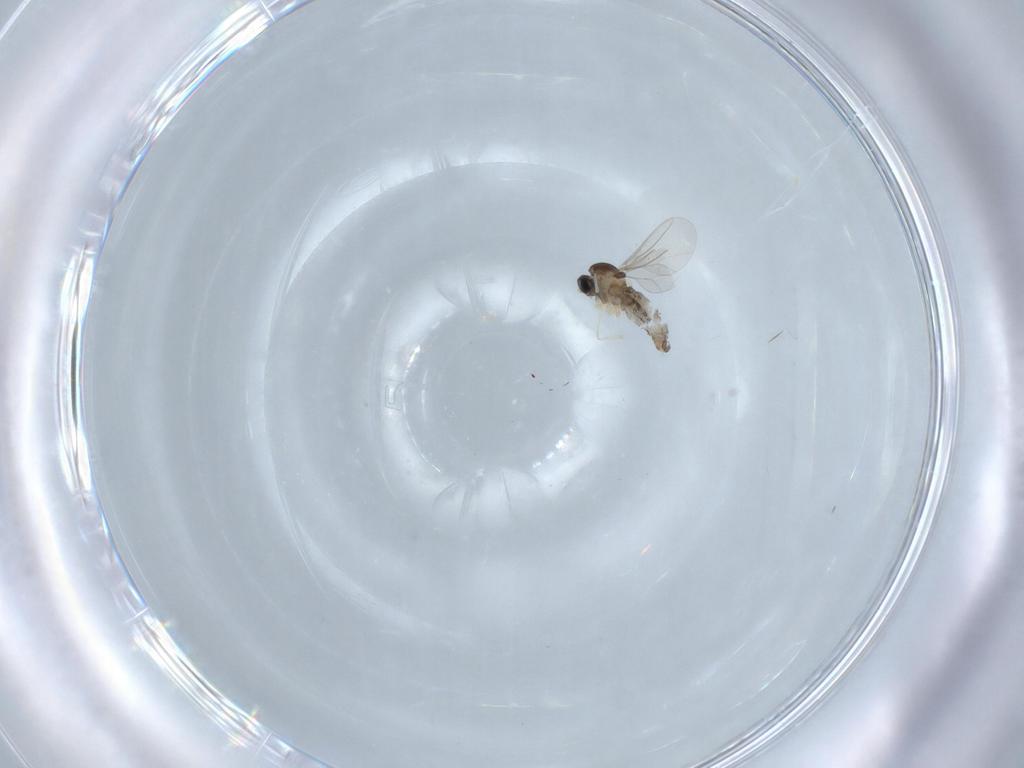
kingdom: Animalia
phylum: Arthropoda
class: Insecta
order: Diptera
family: Cecidomyiidae
